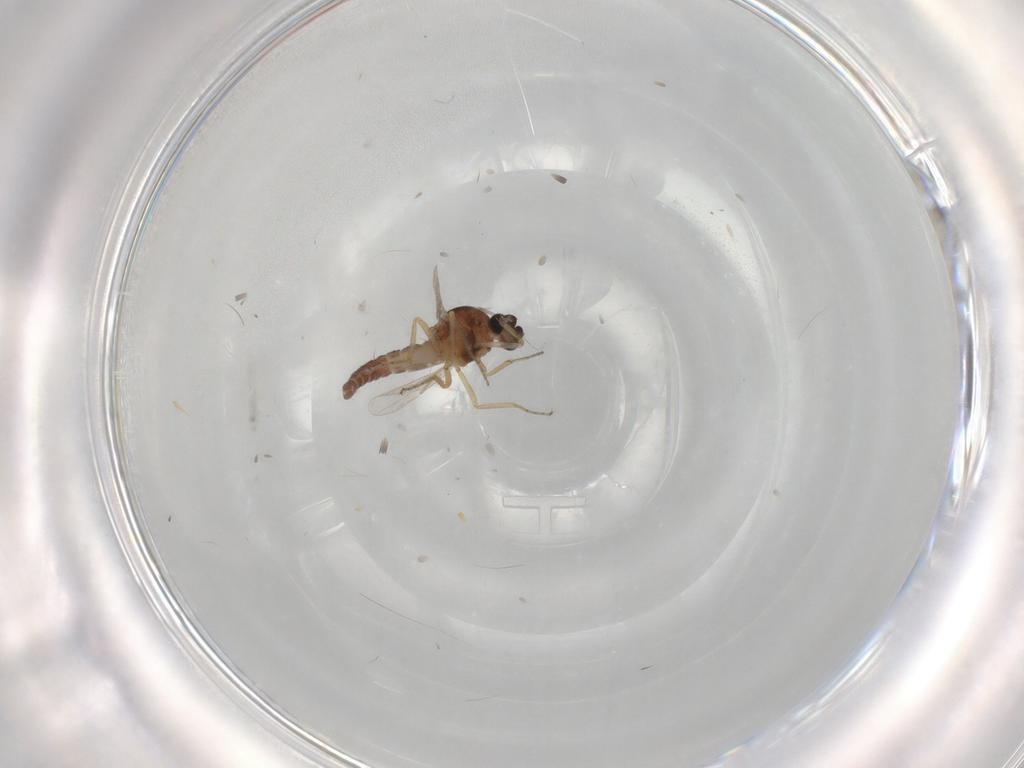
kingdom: Animalia
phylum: Arthropoda
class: Insecta
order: Diptera
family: Ceratopogonidae
